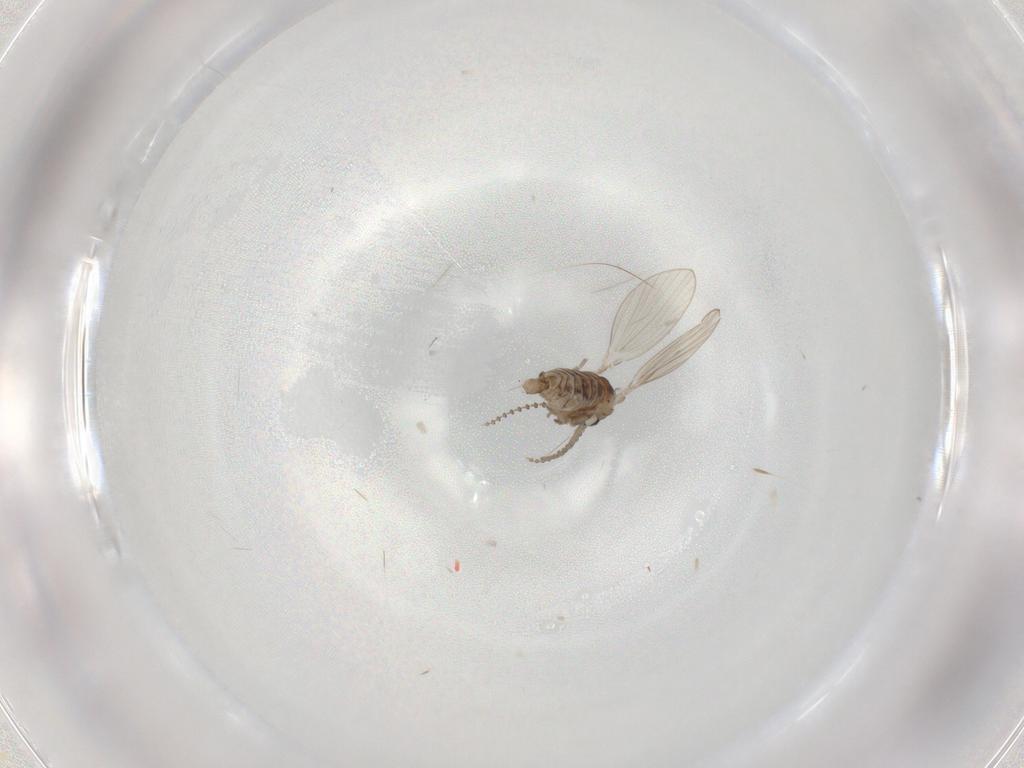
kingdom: Animalia
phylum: Arthropoda
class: Insecta
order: Diptera
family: Psychodidae
